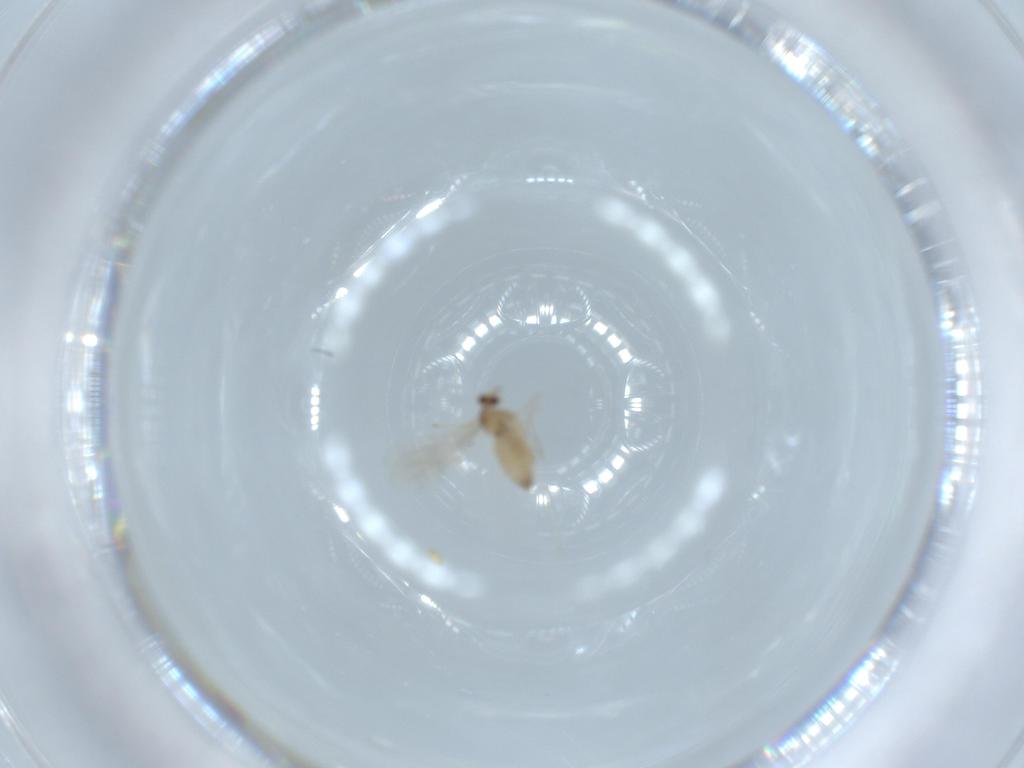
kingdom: Animalia
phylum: Arthropoda
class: Insecta
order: Diptera
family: Cecidomyiidae
